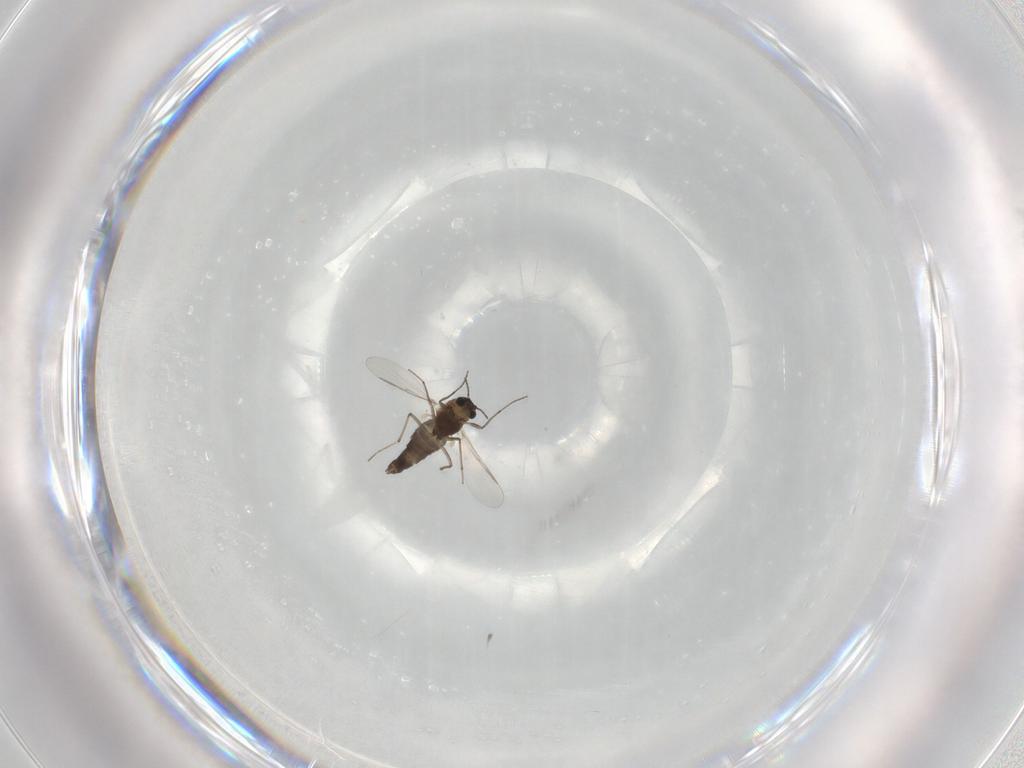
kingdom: Animalia
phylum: Arthropoda
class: Insecta
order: Diptera
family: Chironomidae
